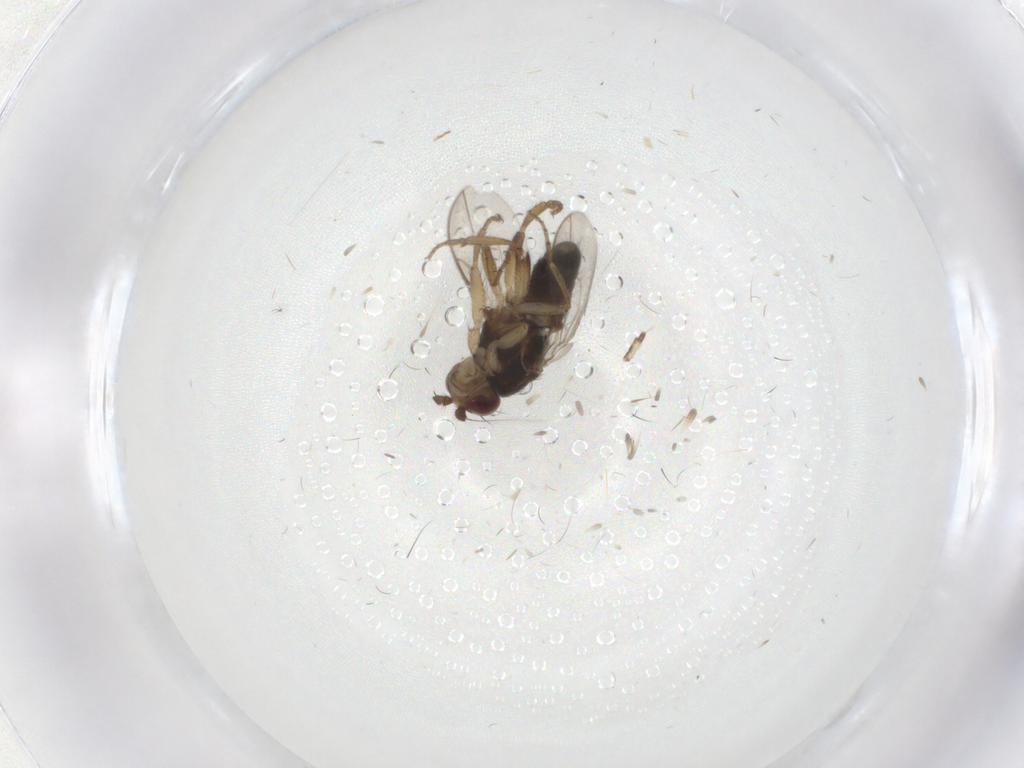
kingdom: Animalia
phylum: Arthropoda
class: Insecta
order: Diptera
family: Sphaeroceridae
